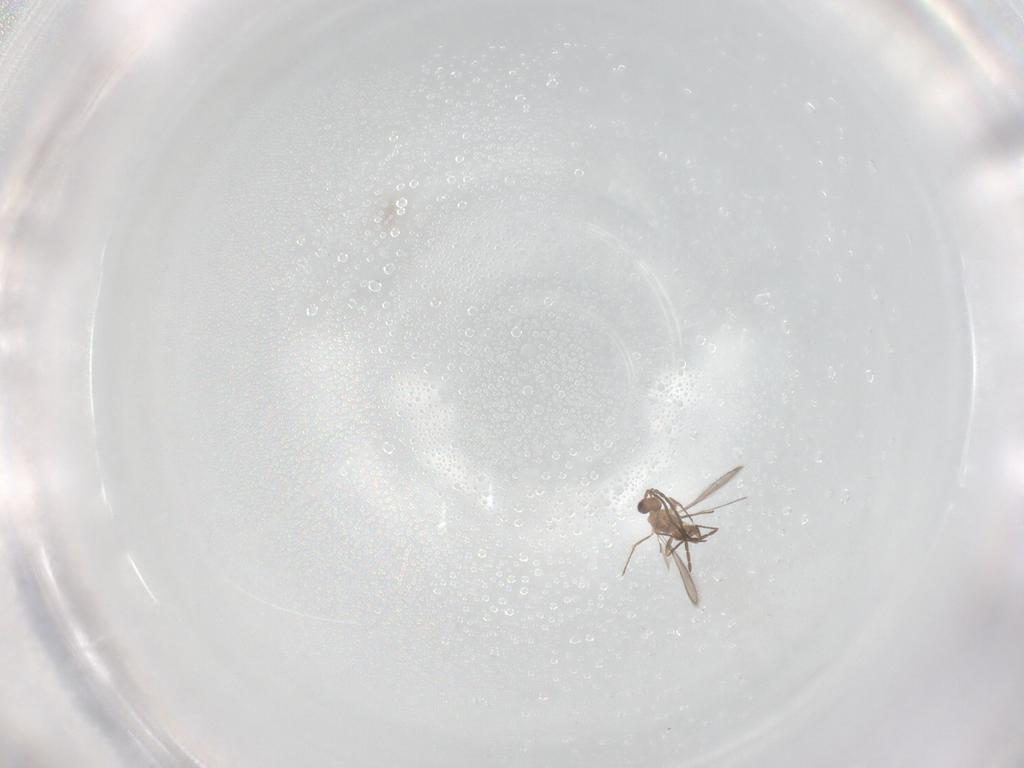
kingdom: Animalia
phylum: Arthropoda
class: Insecta
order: Hymenoptera
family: Mymaridae
